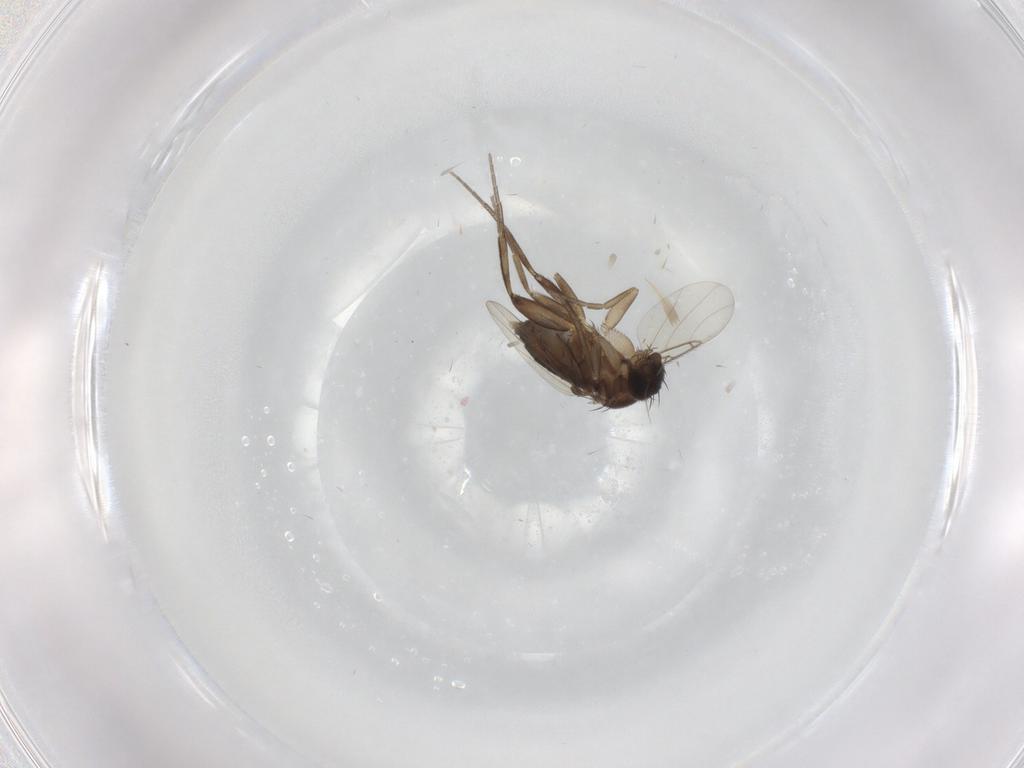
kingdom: Animalia
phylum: Arthropoda
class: Insecta
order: Diptera
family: Phoridae
